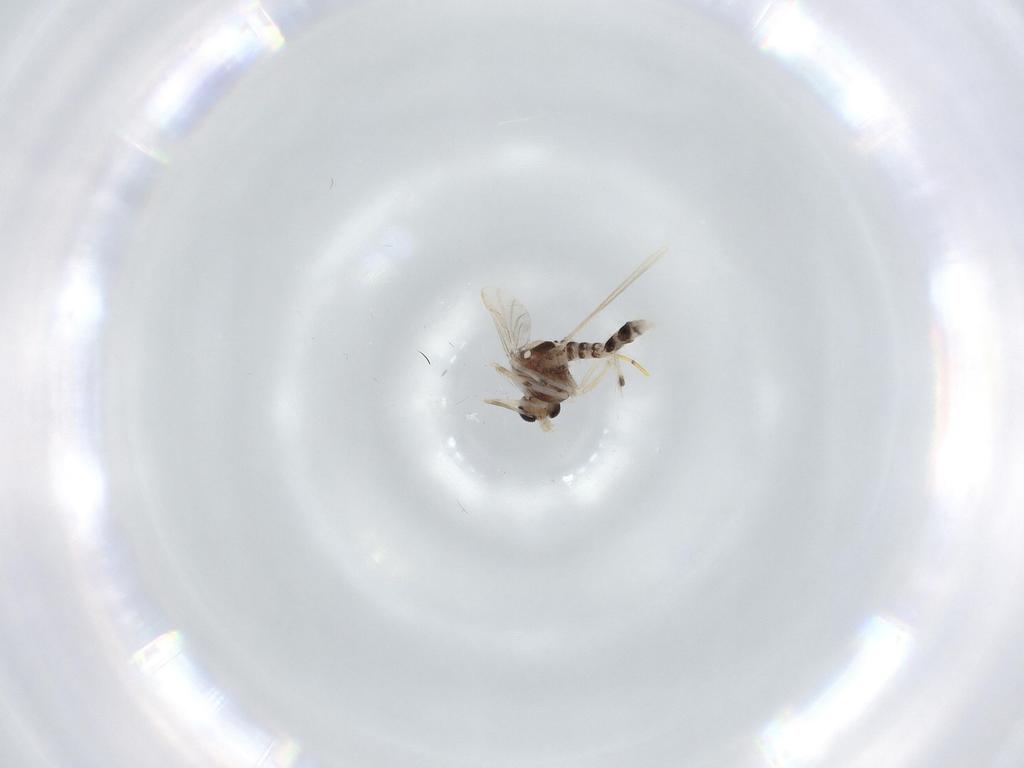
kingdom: Animalia
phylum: Arthropoda
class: Insecta
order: Diptera
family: Chironomidae
